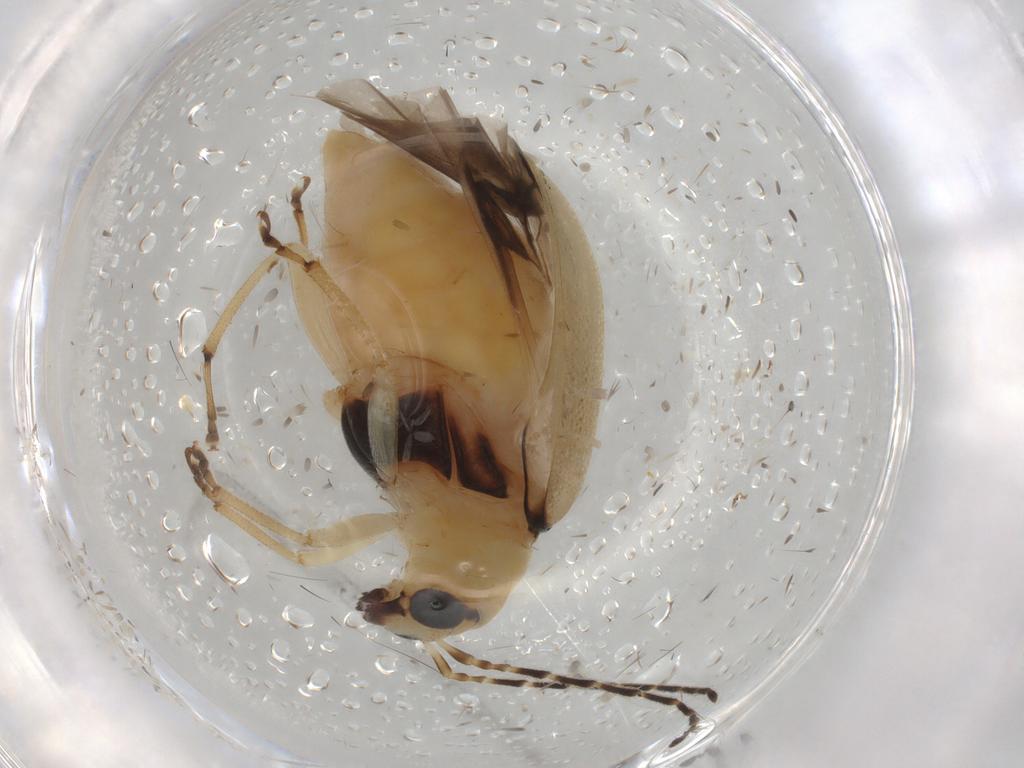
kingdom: Animalia
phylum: Arthropoda
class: Insecta
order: Coleoptera
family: Chrysomelidae
